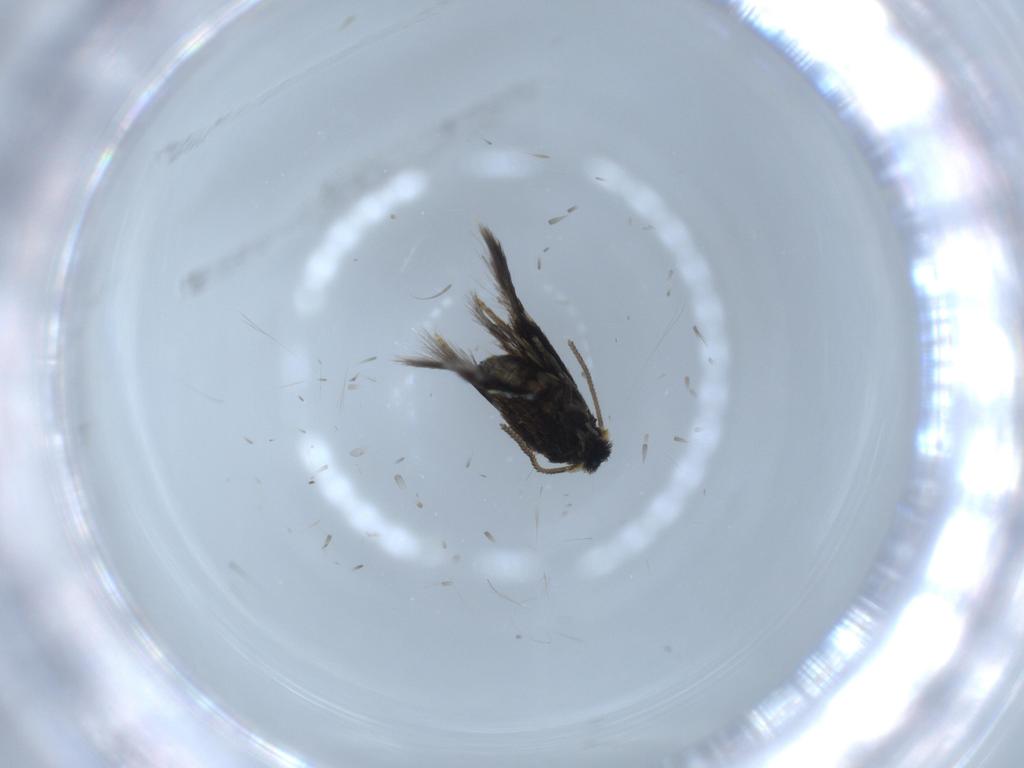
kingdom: Animalia
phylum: Arthropoda
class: Insecta
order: Lepidoptera
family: Nepticulidae
